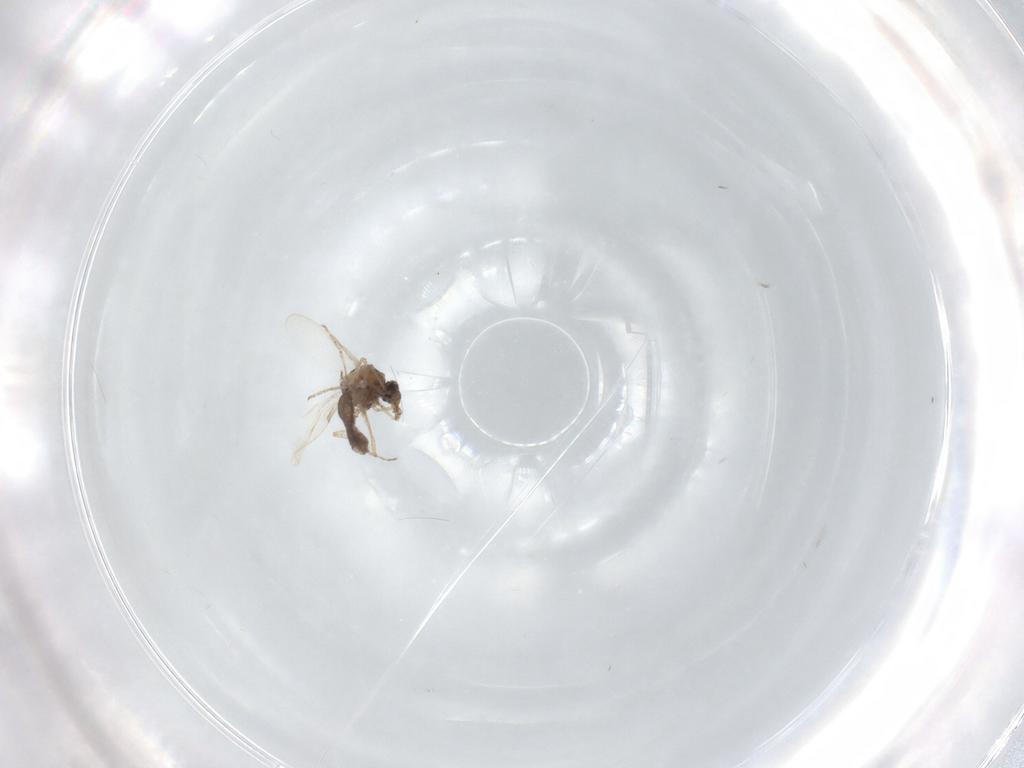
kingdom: Animalia
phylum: Arthropoda
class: Insecta
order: Diptera
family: Ceratopogonidae
